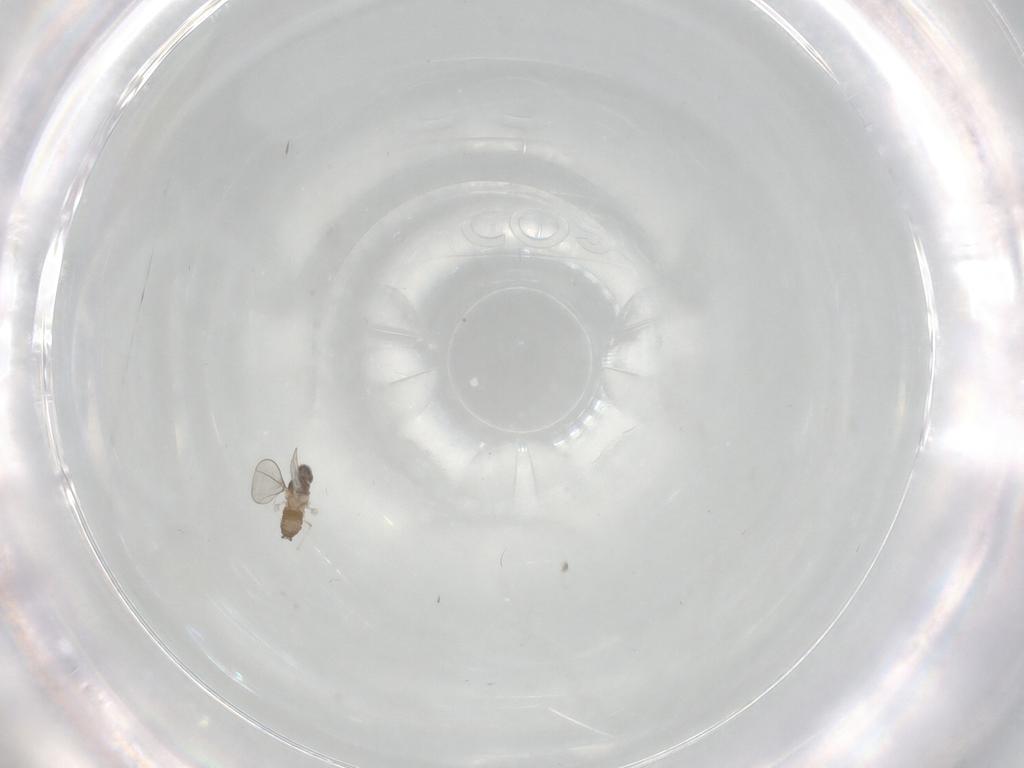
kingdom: Animalia
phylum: Arthropoda
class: Insecta
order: Diptera
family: Cecidomyiidae
